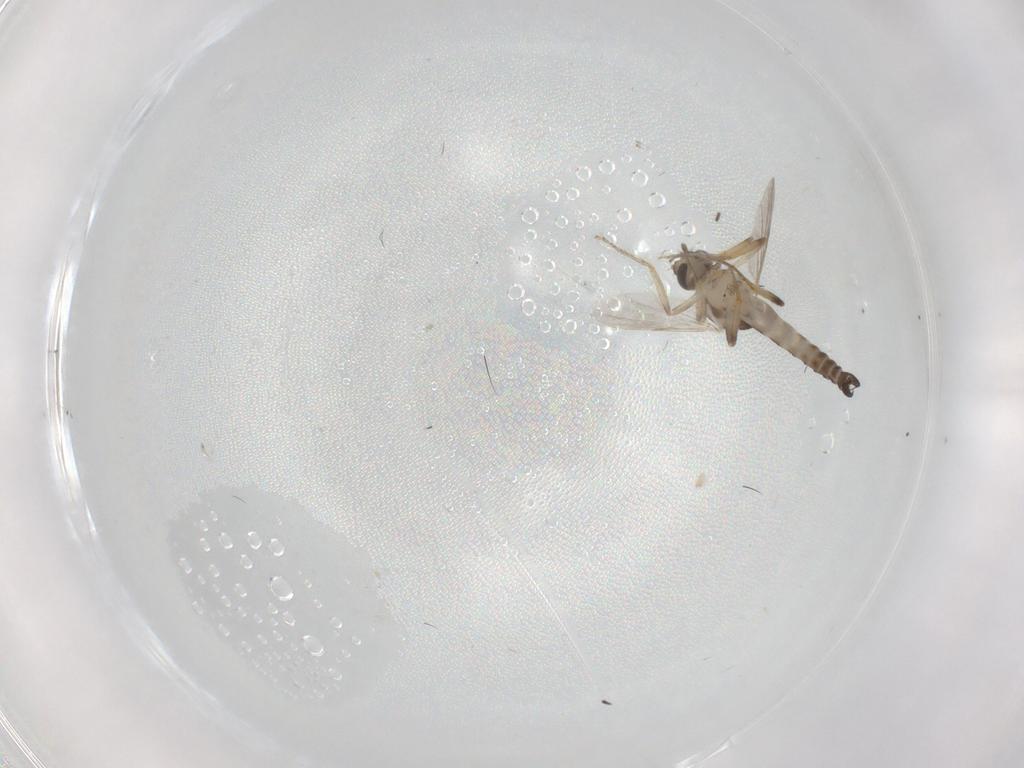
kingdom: Animalia
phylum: Arthropoda
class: Insecta
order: Diptera
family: Ceratopogonidae
